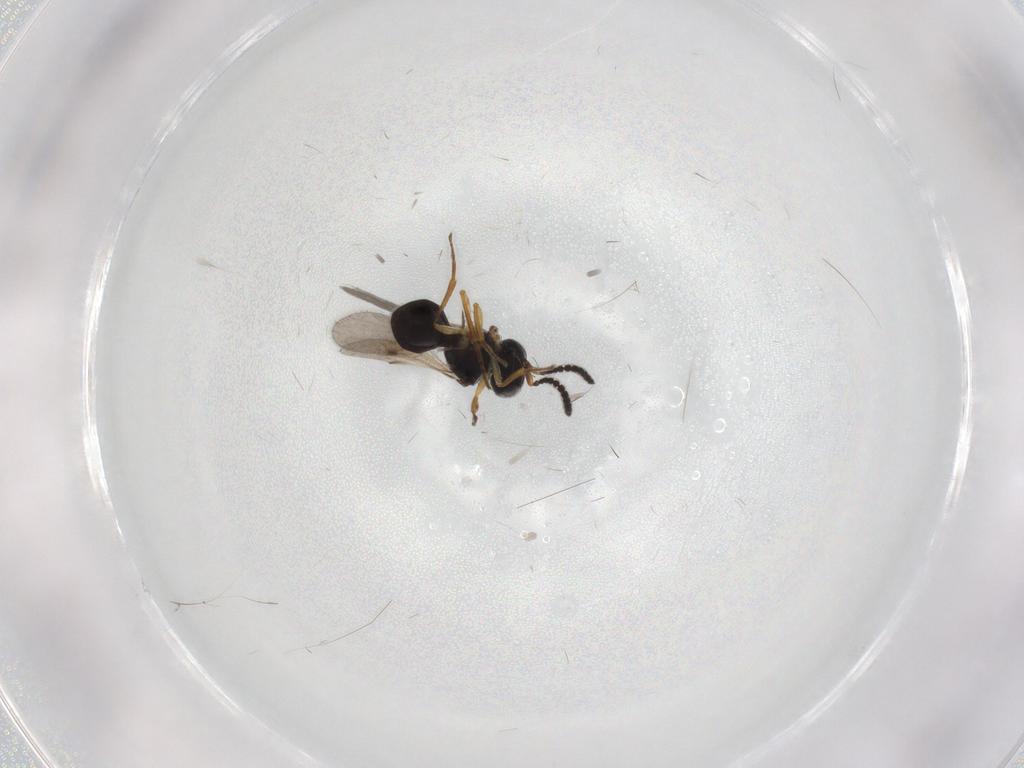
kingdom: Animalia
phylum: Arthropoda
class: Insecta
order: Hymenoptera
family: Scelionidae
